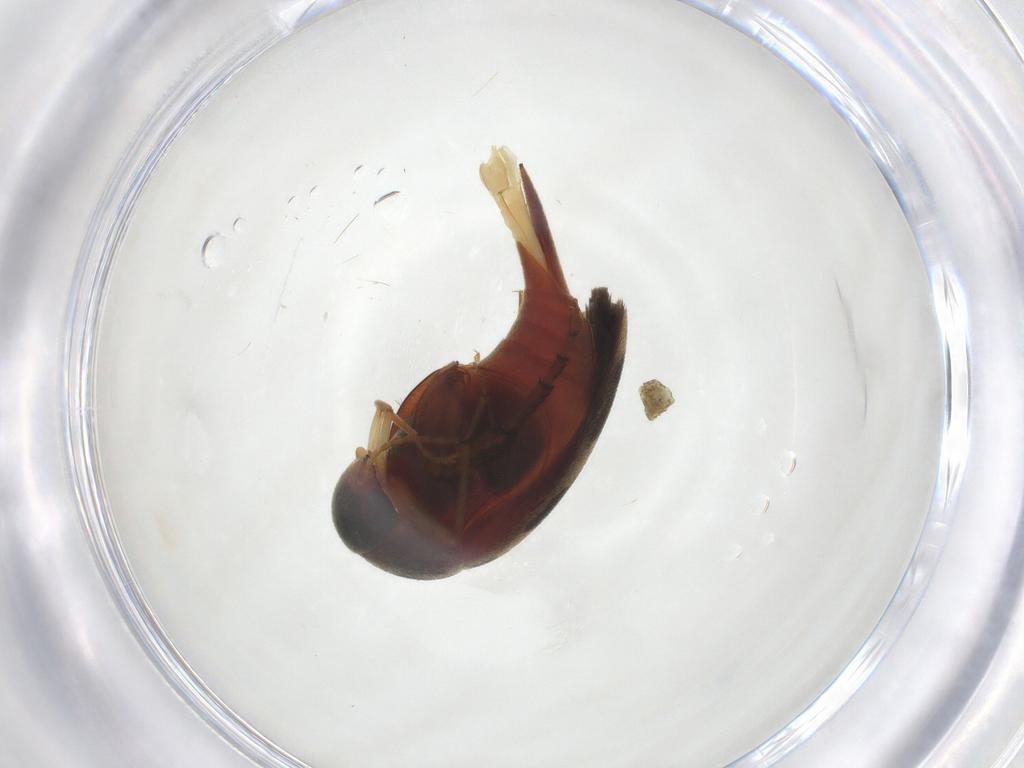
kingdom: Animalia
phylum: Arthropoda
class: Insecta
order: Coleoptera
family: Mordellidae
